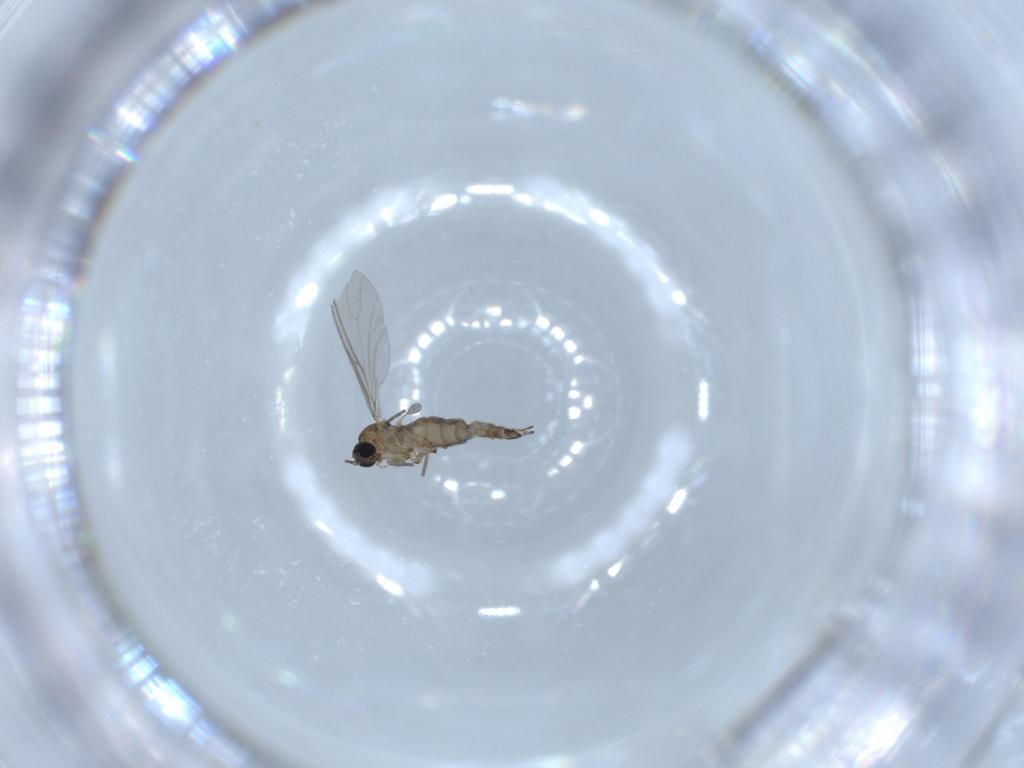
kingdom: Animalia
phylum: Arthropoda
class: Insecta
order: Diptera
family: Sciaridae
